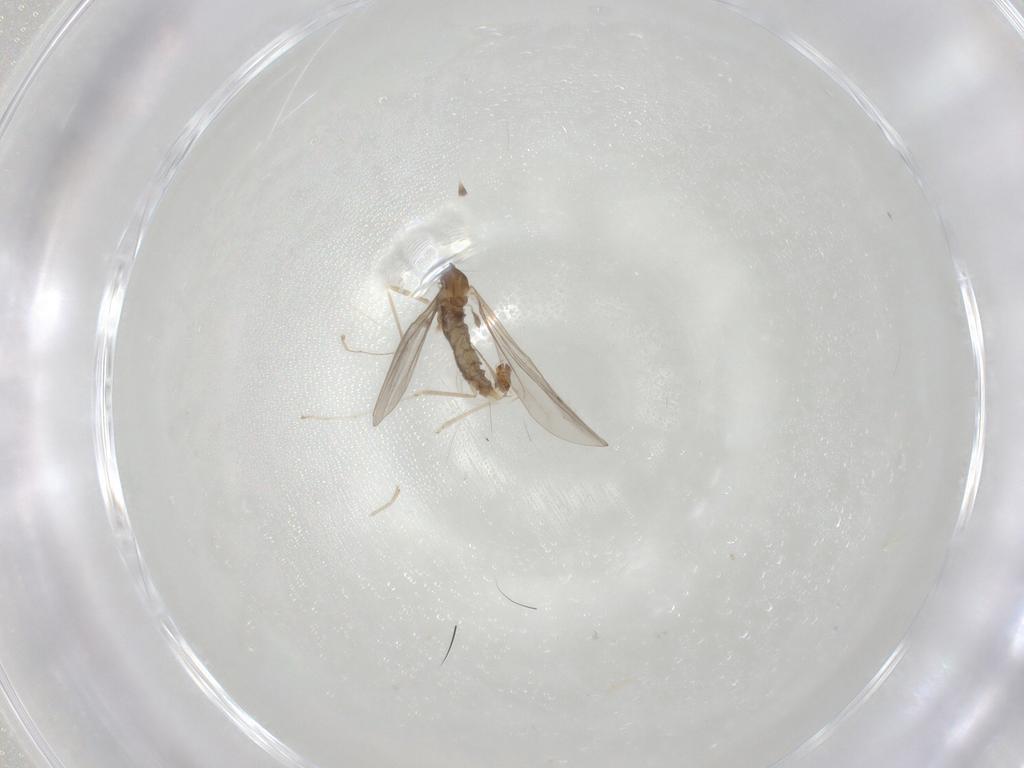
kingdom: Animalia
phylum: Arthropoda
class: Insecta
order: Diptera
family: Cecidomyiidae
